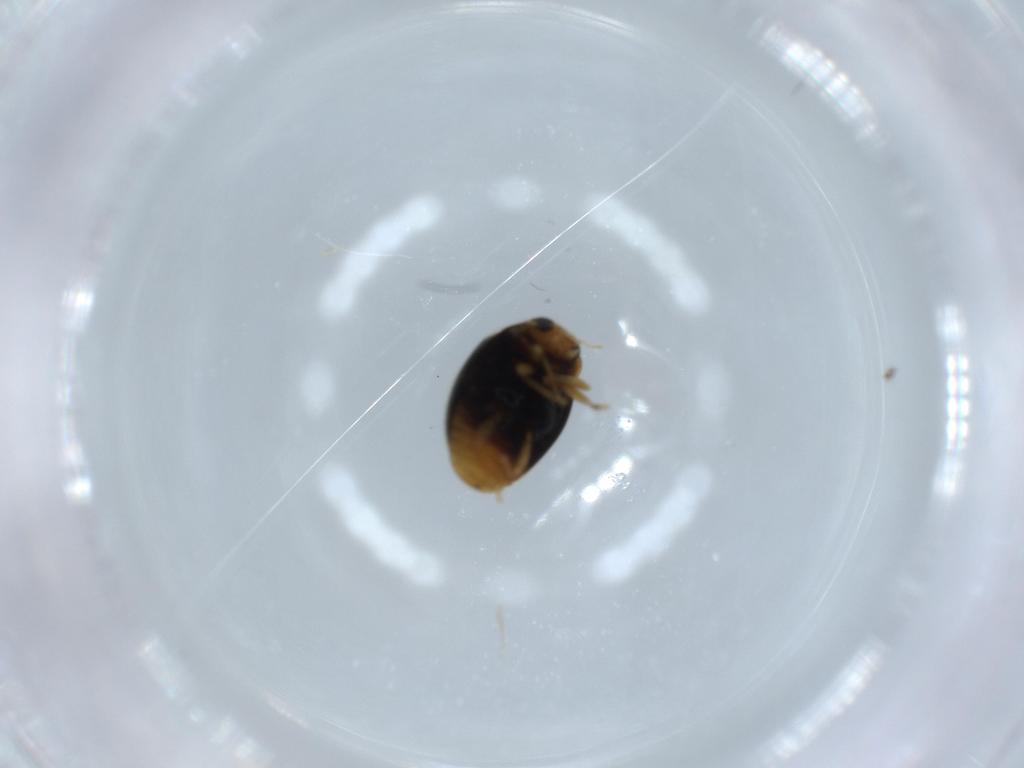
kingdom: Animalia
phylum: Arthropoda
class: Insecta
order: Coleoptera
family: Coccinellidae
